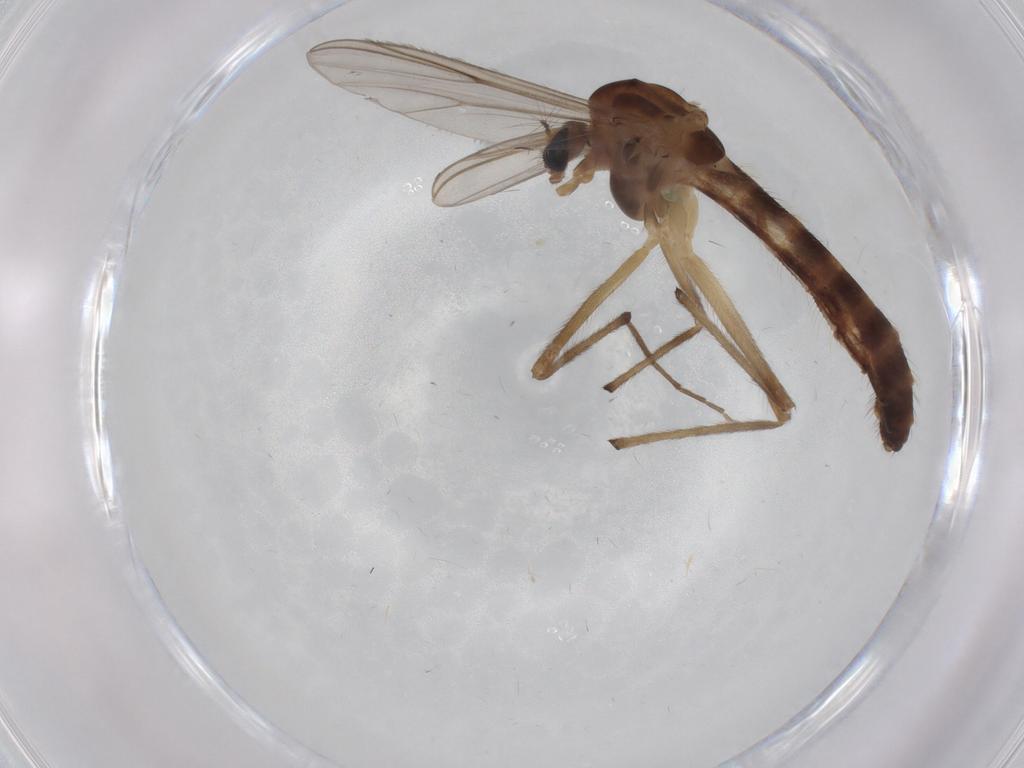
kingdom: Animalia
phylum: Arthropoda
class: Insecta
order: Diptera
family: Chironomidae
